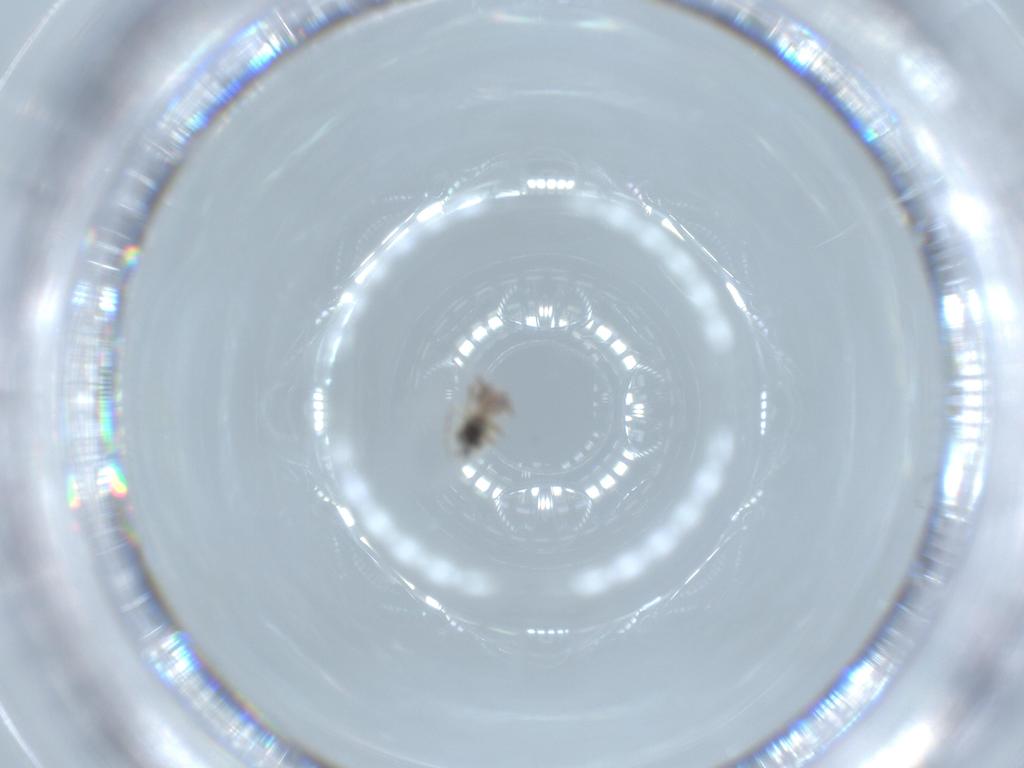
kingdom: Animalia
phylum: Arthropoda
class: Insecta
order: Psocodea
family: Lepidopsocidae
